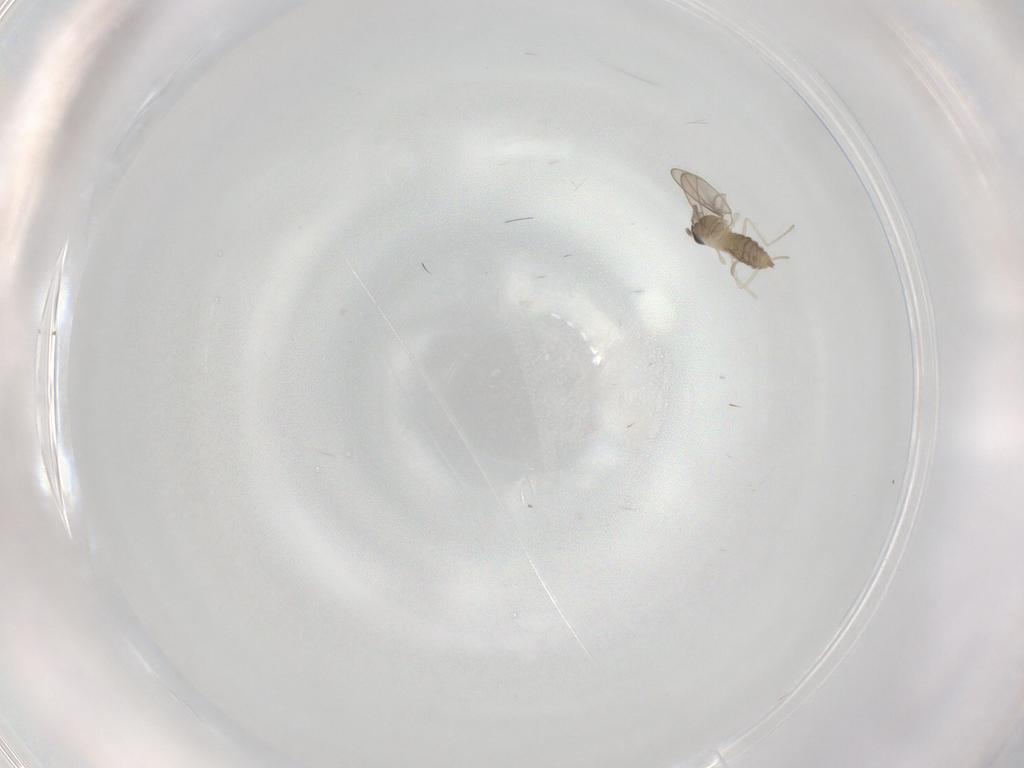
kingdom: Animalia
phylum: Arthropoda
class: Insecta
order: Diptera
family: Cecidomyiidae
